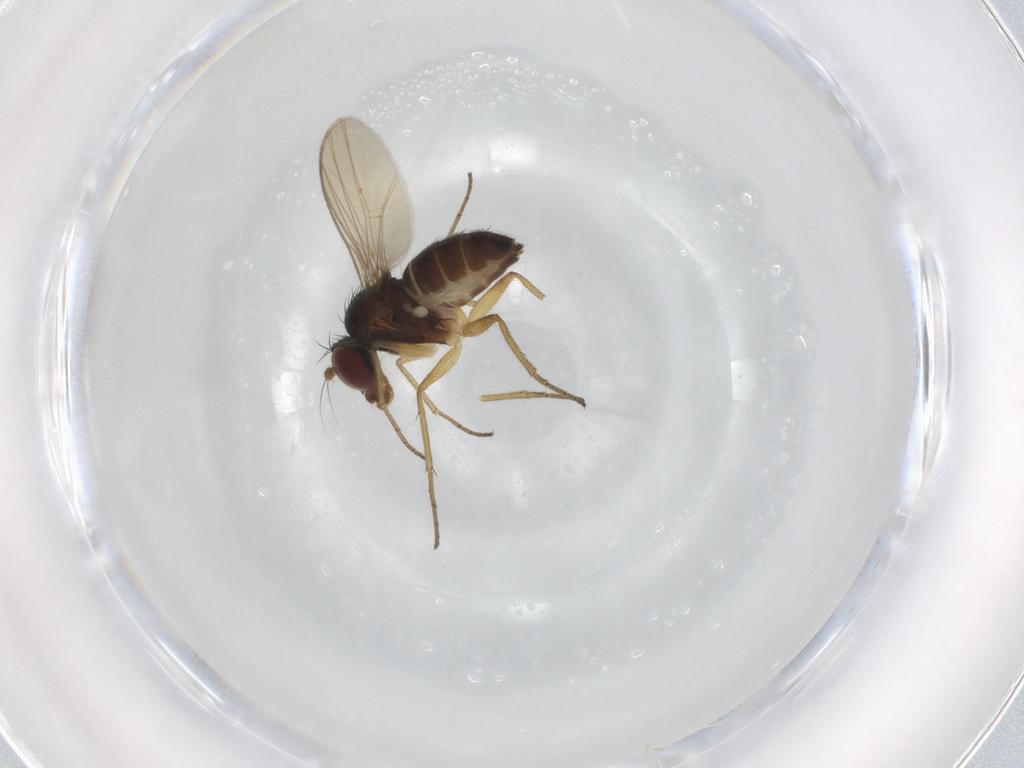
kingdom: Animalia
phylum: Arthropoda
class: Insecta
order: Diptera
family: Dolichopodidae
